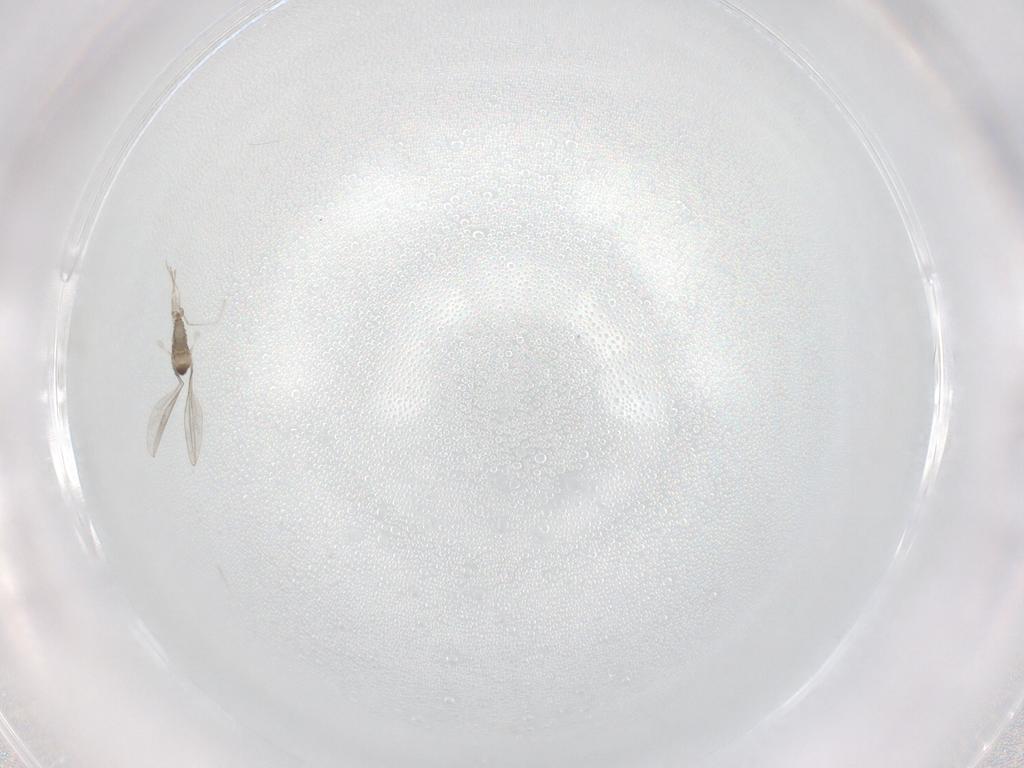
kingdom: Animalia
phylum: Arthropoda
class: Insecta
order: Diptera
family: Cecidomyiidae
